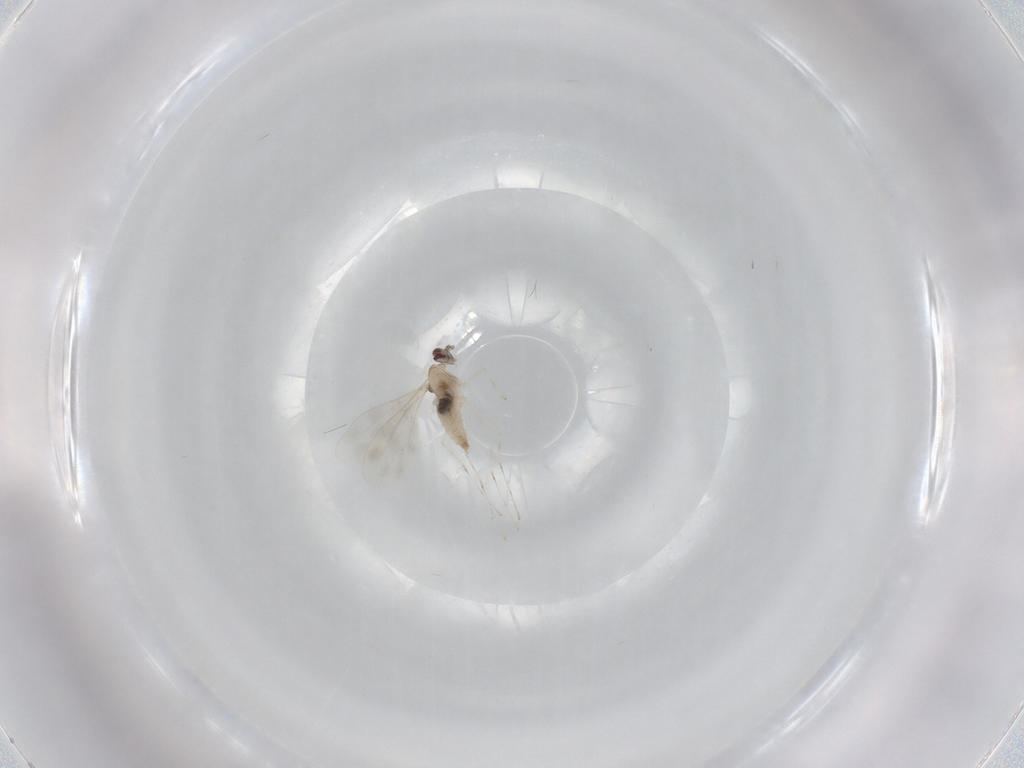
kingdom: Animalia
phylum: Arthropoda
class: Insecta
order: Diptera
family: Cecidomyiidae
